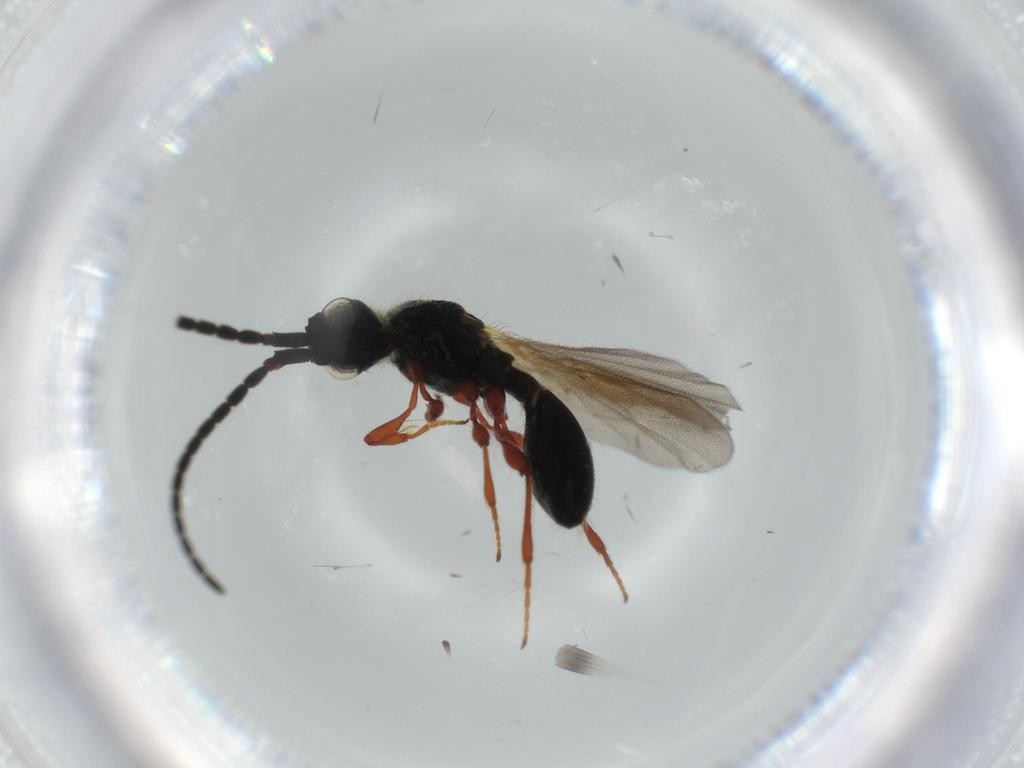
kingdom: Animalia
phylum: Arthropoda
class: Insecta
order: Hymenoptera
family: Diapriidae
